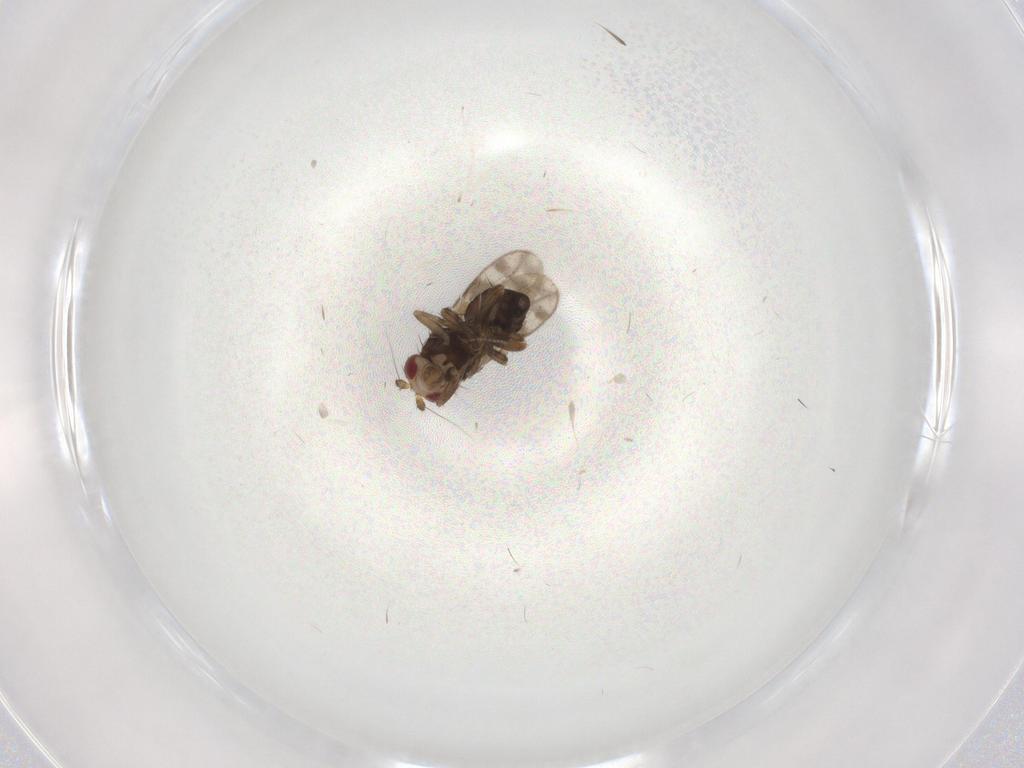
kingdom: Animalia
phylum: Arthropoda
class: Insecta
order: Diptera
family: Sphaeroceridae
